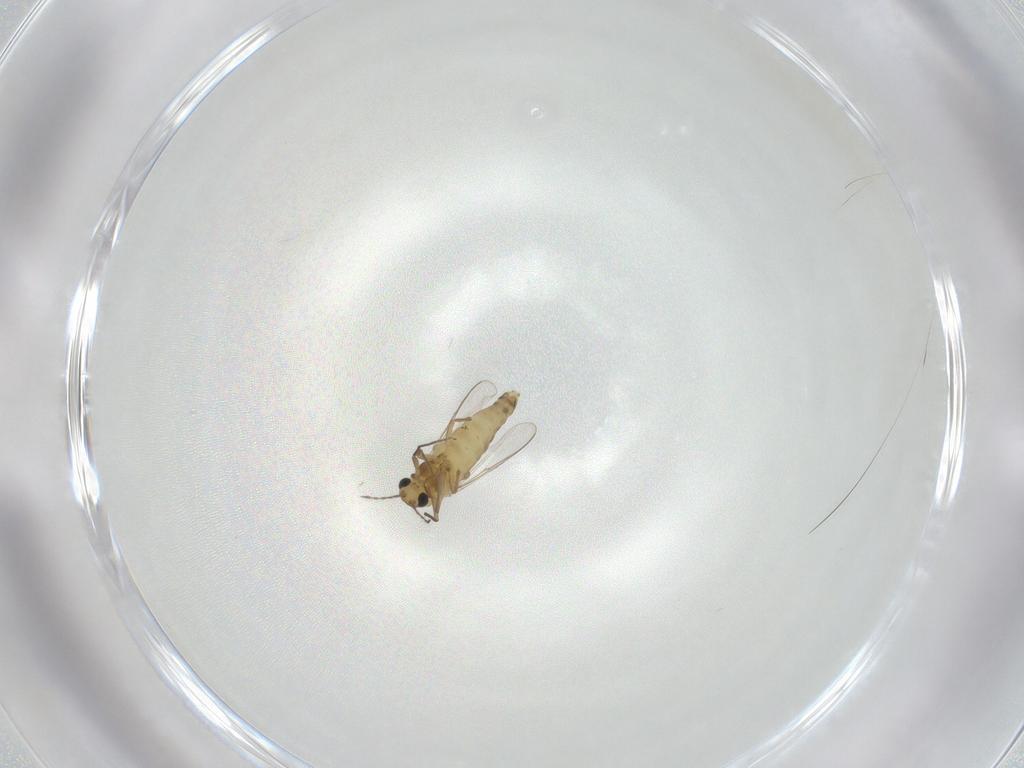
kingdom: Animalia
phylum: Arthropoda
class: Insecta
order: Diptera
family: Chironomidae
